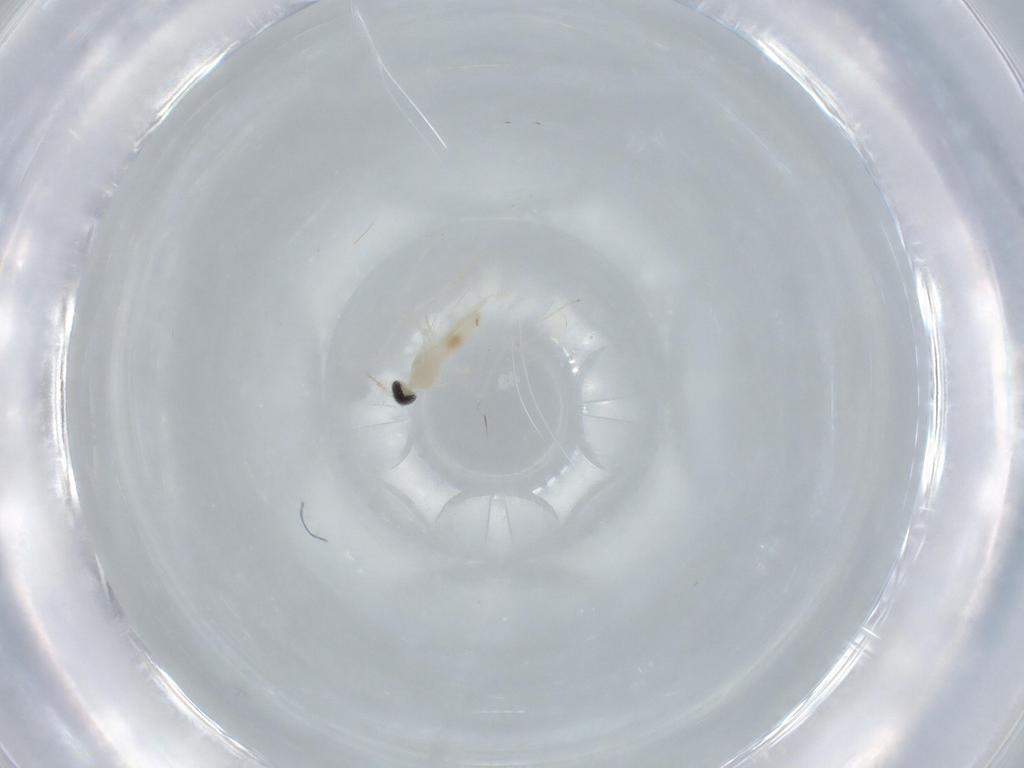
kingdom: Animalia
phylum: Arthropoda
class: Insecta
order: Diptera
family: Cecidomyiidae
